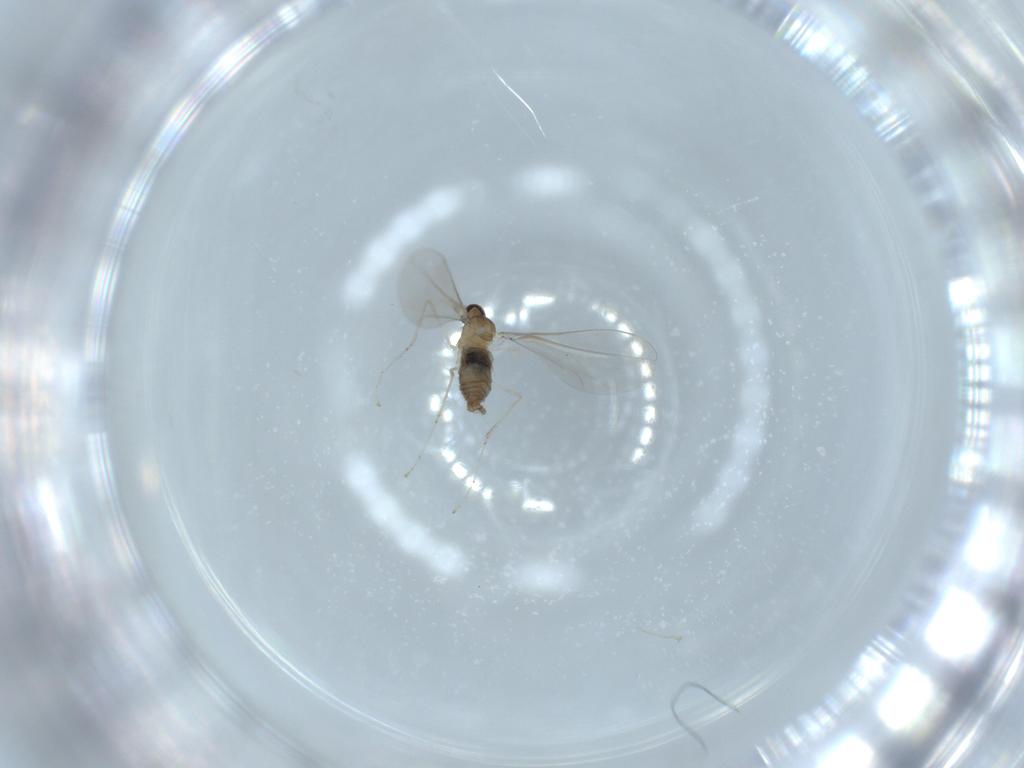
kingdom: Animalia
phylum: Arthropoda
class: Insecta
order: Diptera
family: Cecidomyiidae
